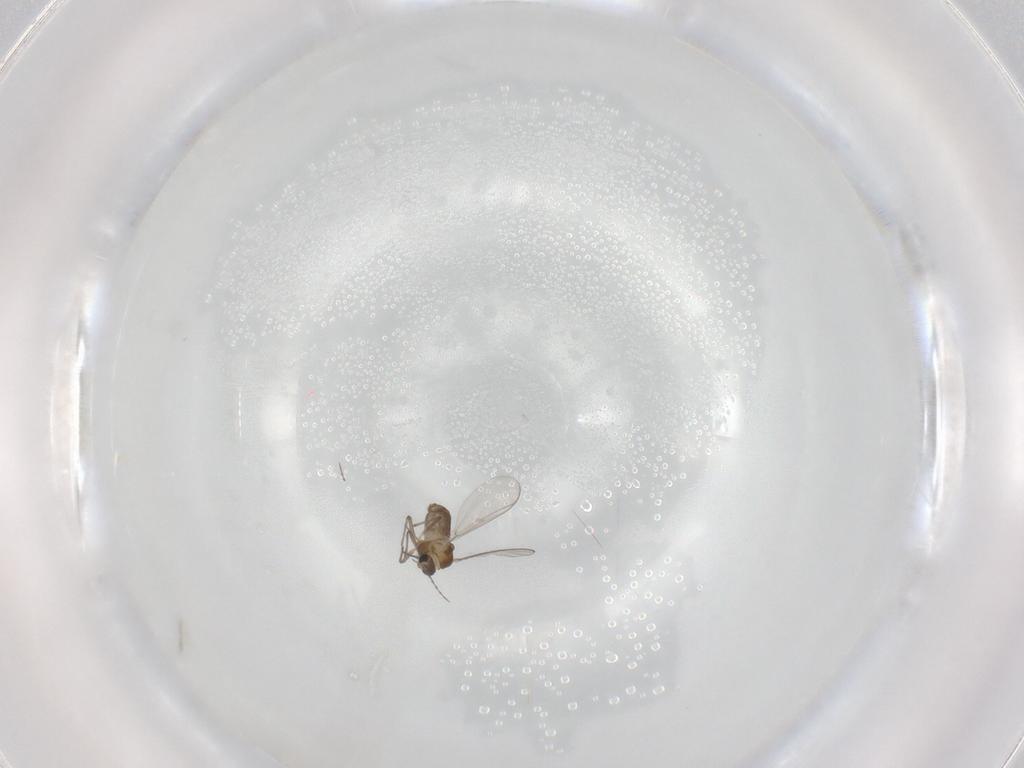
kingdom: Animalia
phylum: Arthropoda
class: Insecta
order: Diptera
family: Chironomidae
